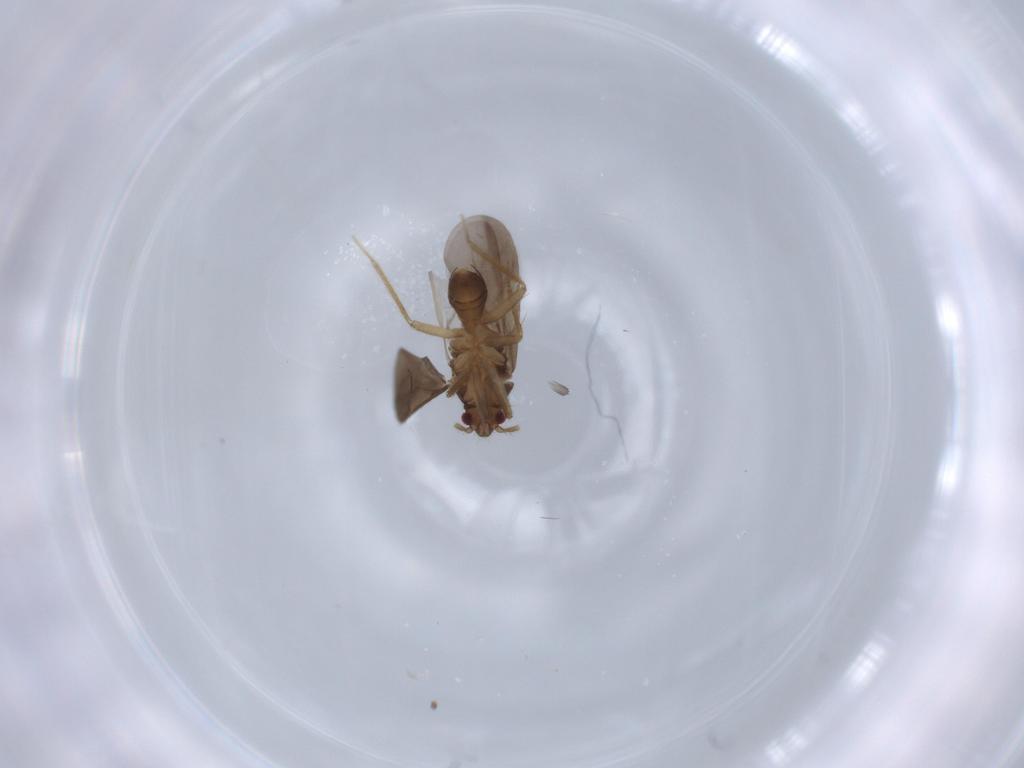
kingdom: Animalia
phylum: Arthropoda
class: Insecta
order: Hemiptera
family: Ceratocombidae
